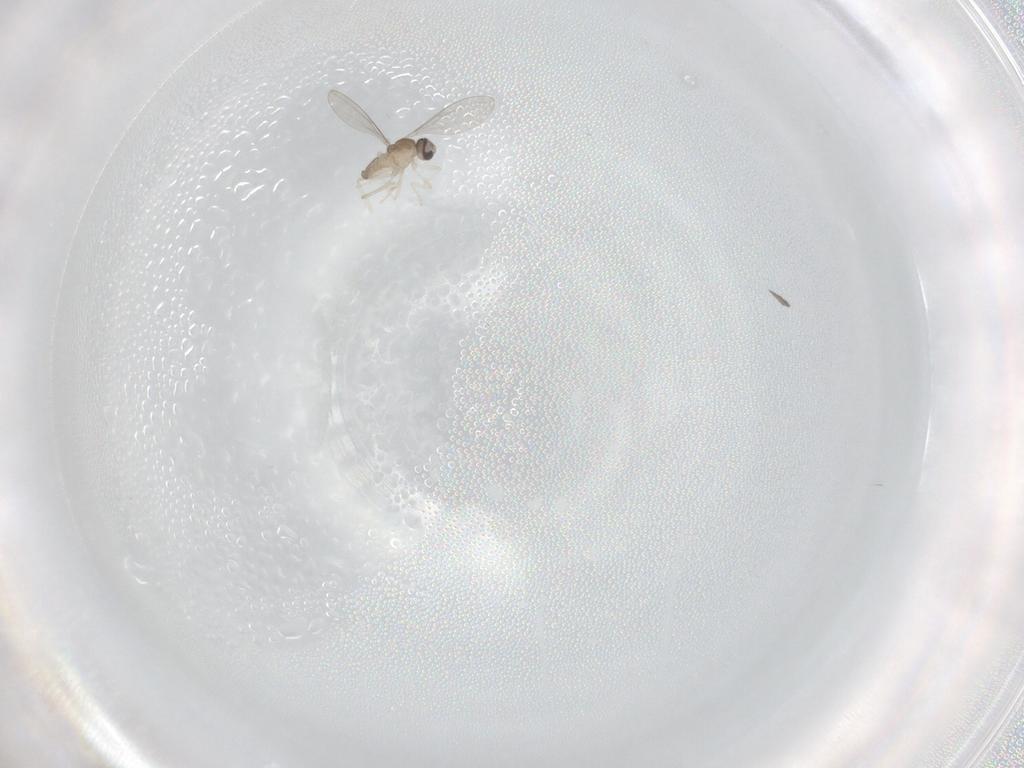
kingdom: Animalia
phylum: Arthropoda
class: Insecta
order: Diptera
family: Cecidomyiidae
